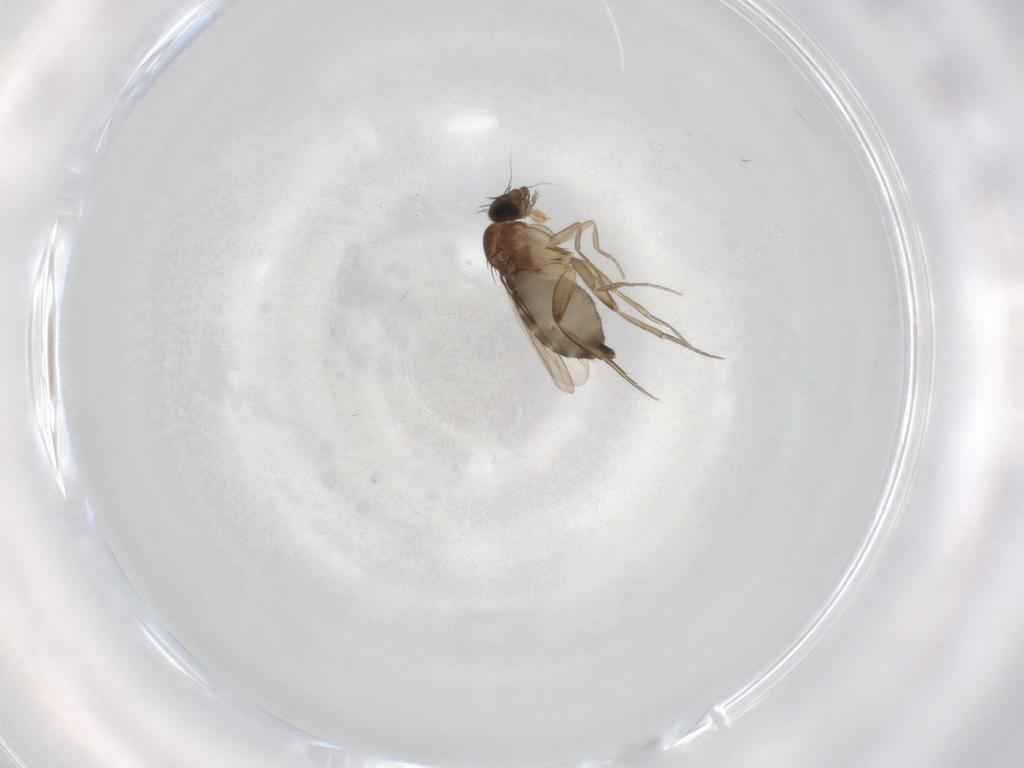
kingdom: Animalia
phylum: Arthropoda
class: Insecta
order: Diptera
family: Phoridae
